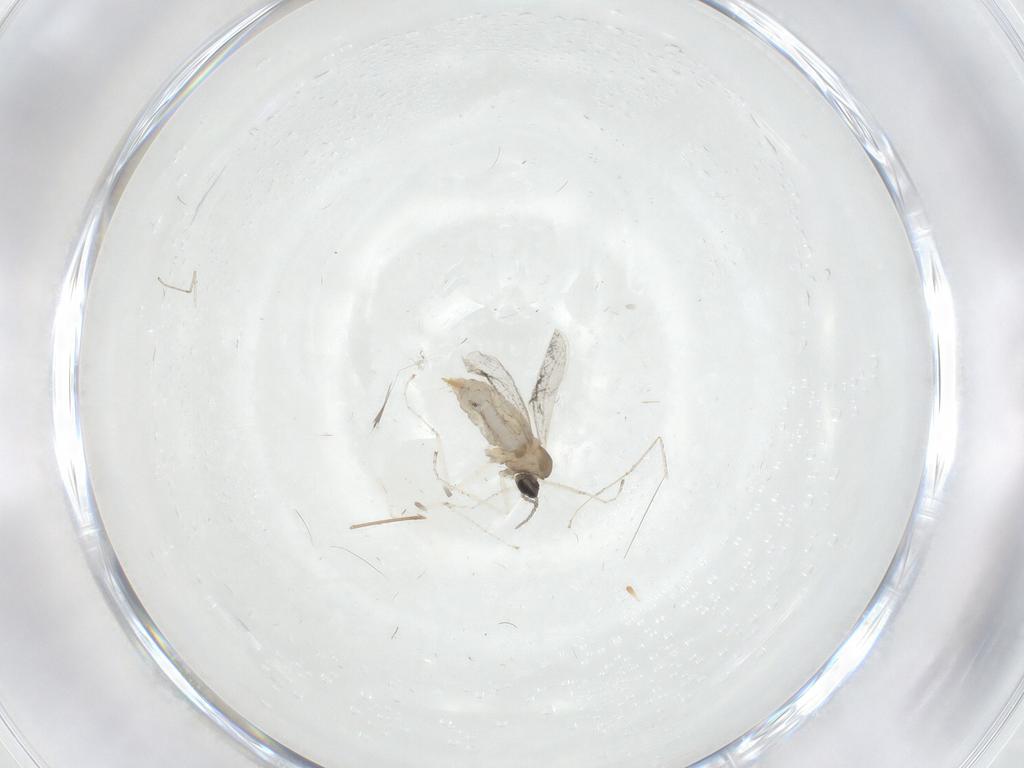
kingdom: Animalia
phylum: Arthropoda
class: Insecta
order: Diptera
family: Cecidomyiidae
